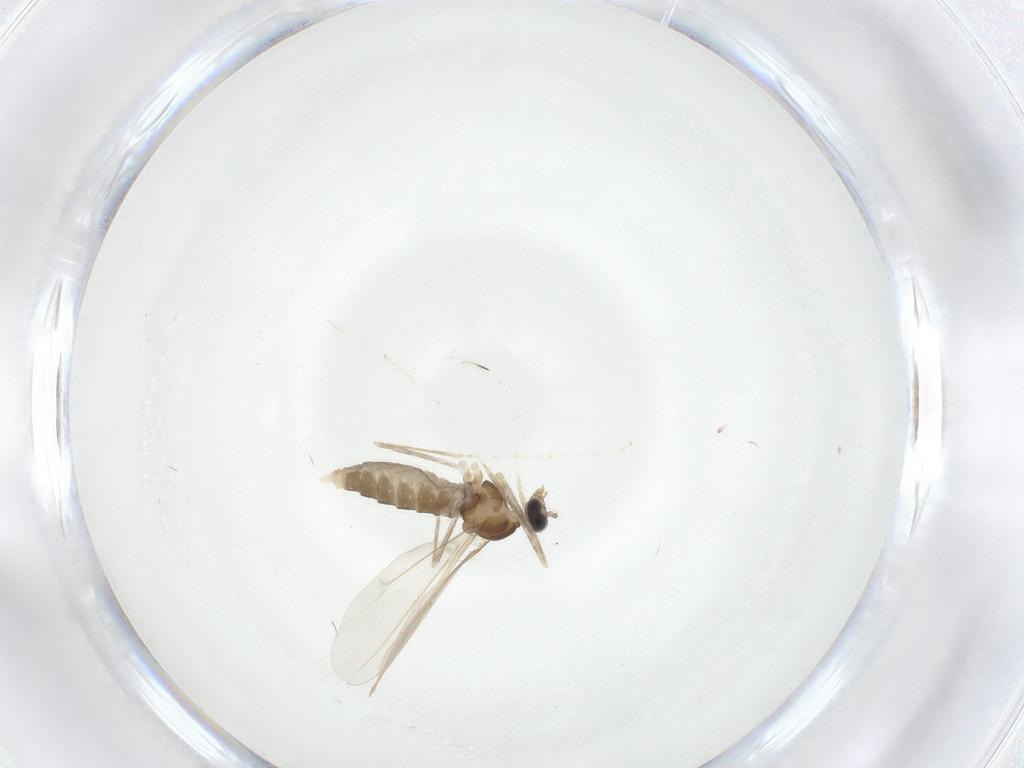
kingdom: Animalia
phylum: Arthropoda
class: Insecta
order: Diptera
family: Cecidomyiidae
